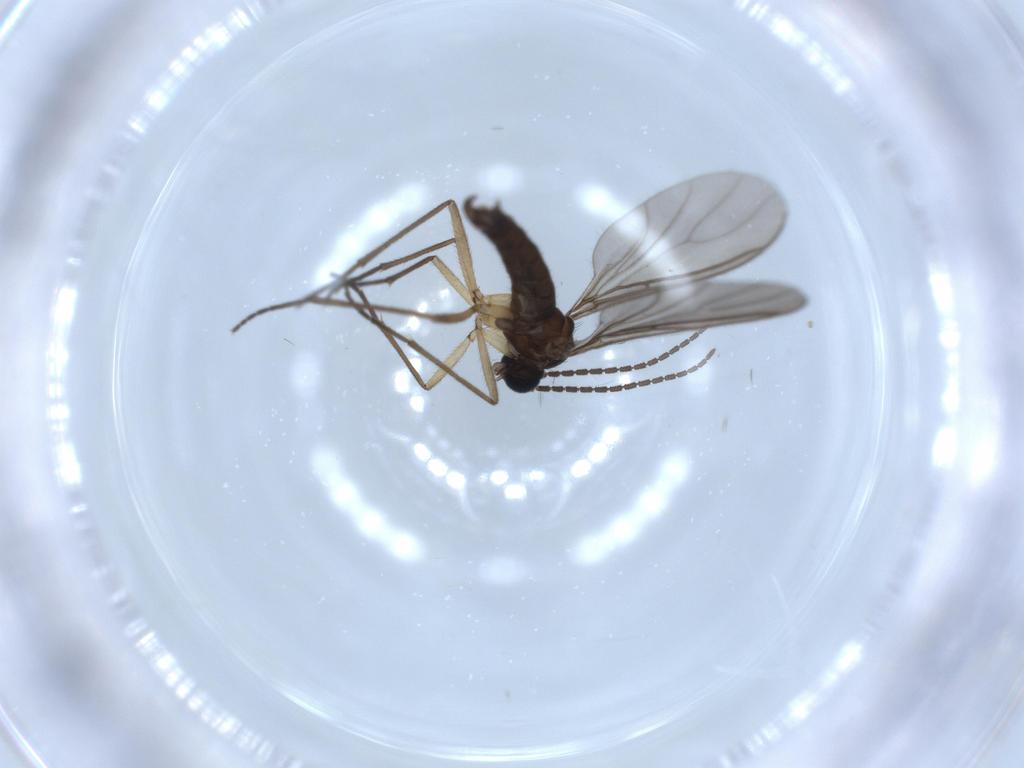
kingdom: Animalia
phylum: Arthropoda
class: Insecta
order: Diptera
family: Sciaridae
